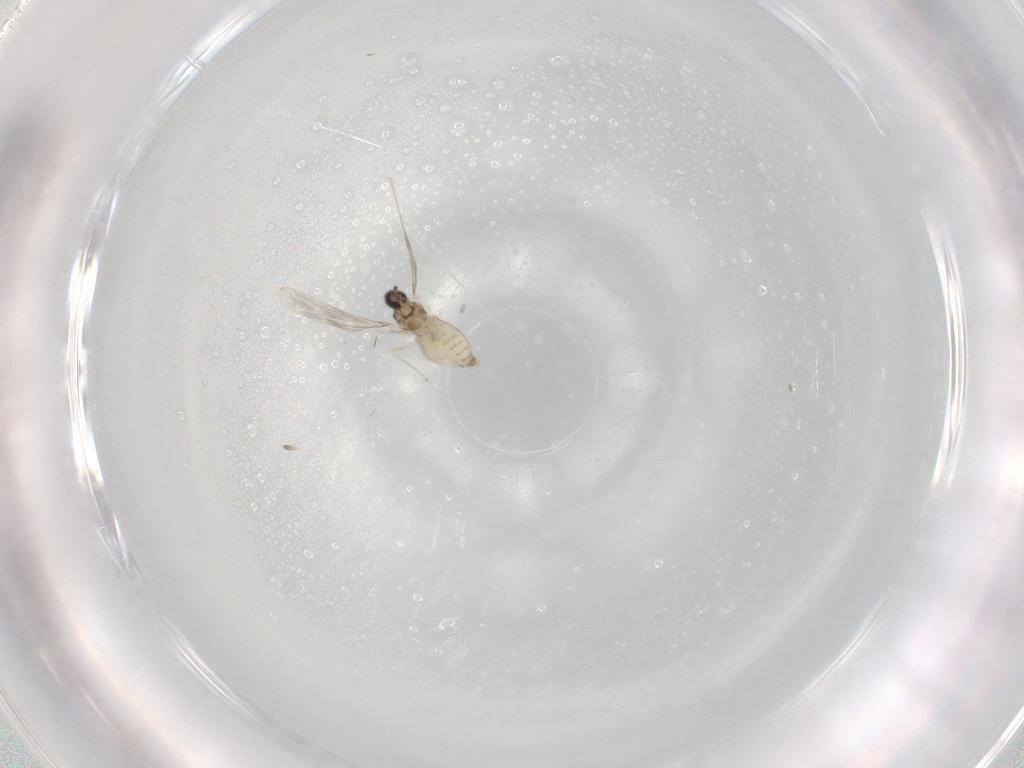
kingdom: Animalia
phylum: Arthropoda
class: Insecta
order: Diptera
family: Cecidomyiidae
